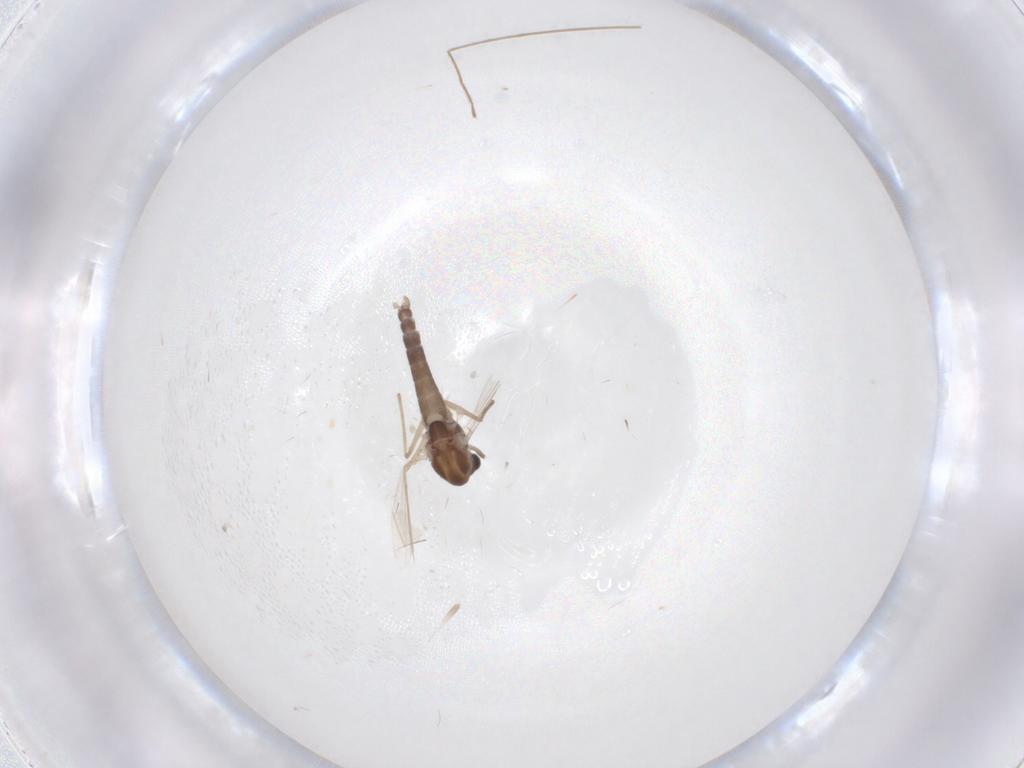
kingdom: Animalia
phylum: Arthropoda
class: Insecta
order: Diptera
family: Chironomidae
